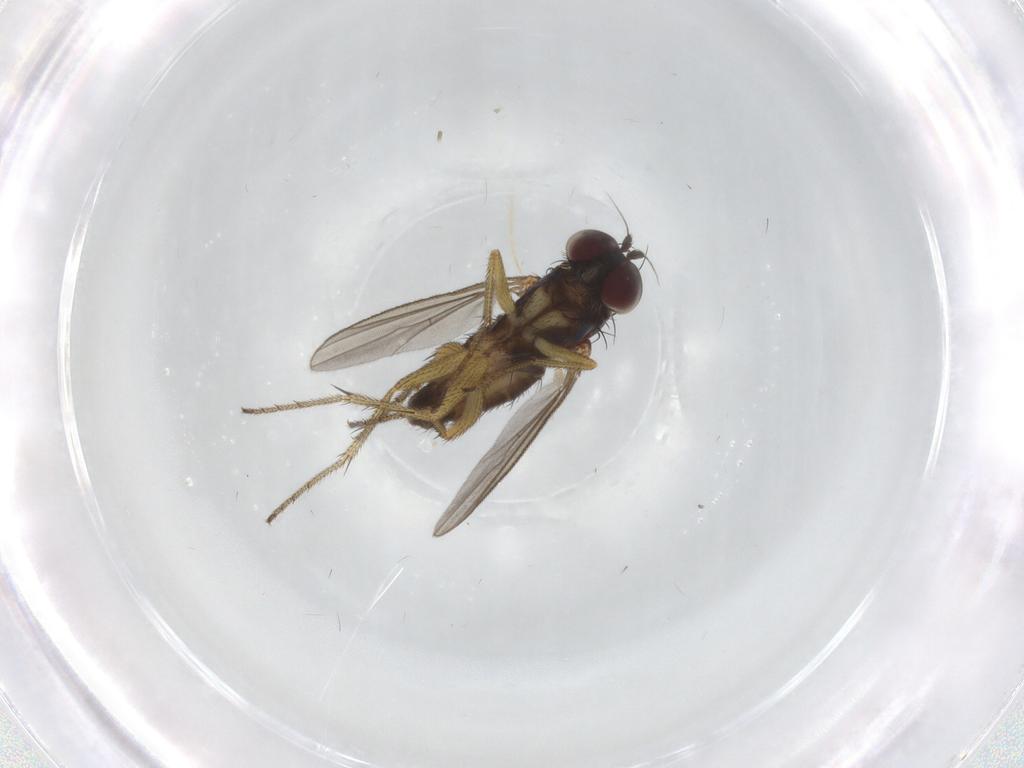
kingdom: Animalia
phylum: Arthropoda
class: Insecta
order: Diptera
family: Dolichopodidae
